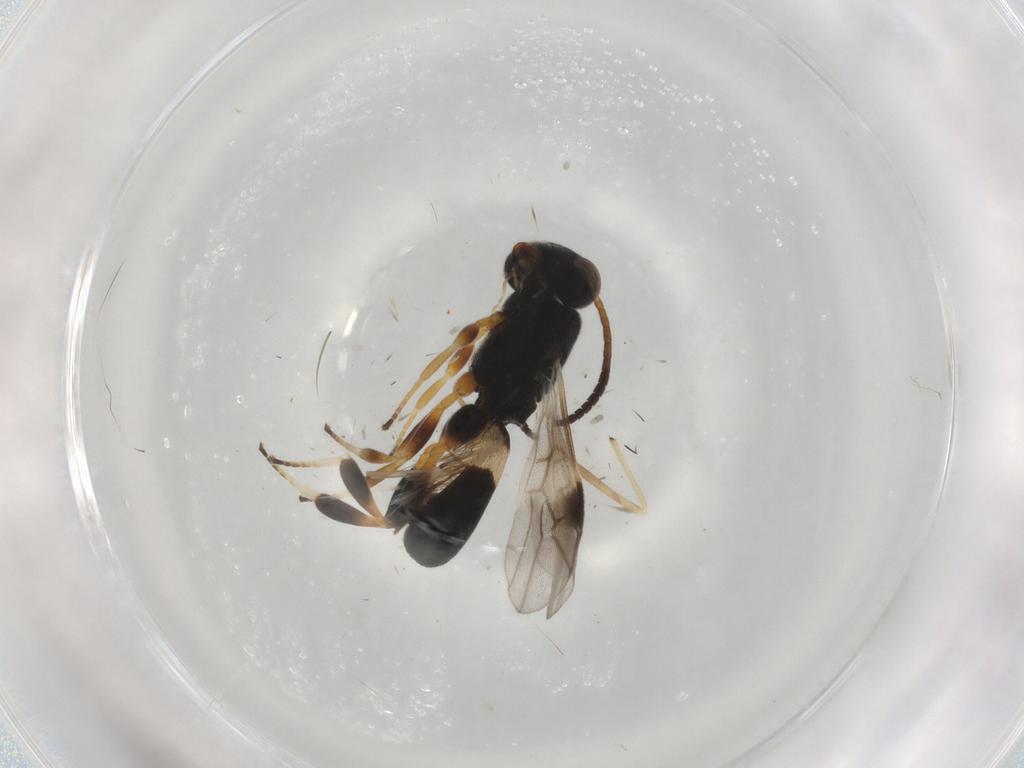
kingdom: Animalia
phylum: Arthropoda
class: Insecta
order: Hymenoptera
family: Braconidae
